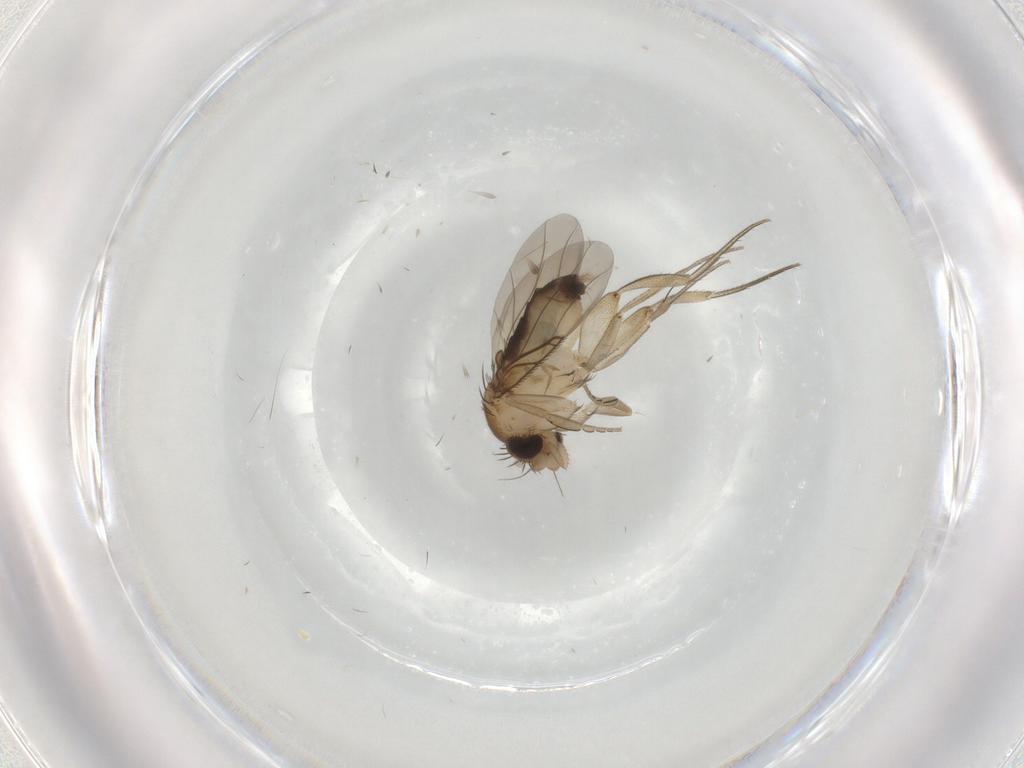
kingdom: Animalia
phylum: Arthropoda
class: Insecta
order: Diptera
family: Phoridae
